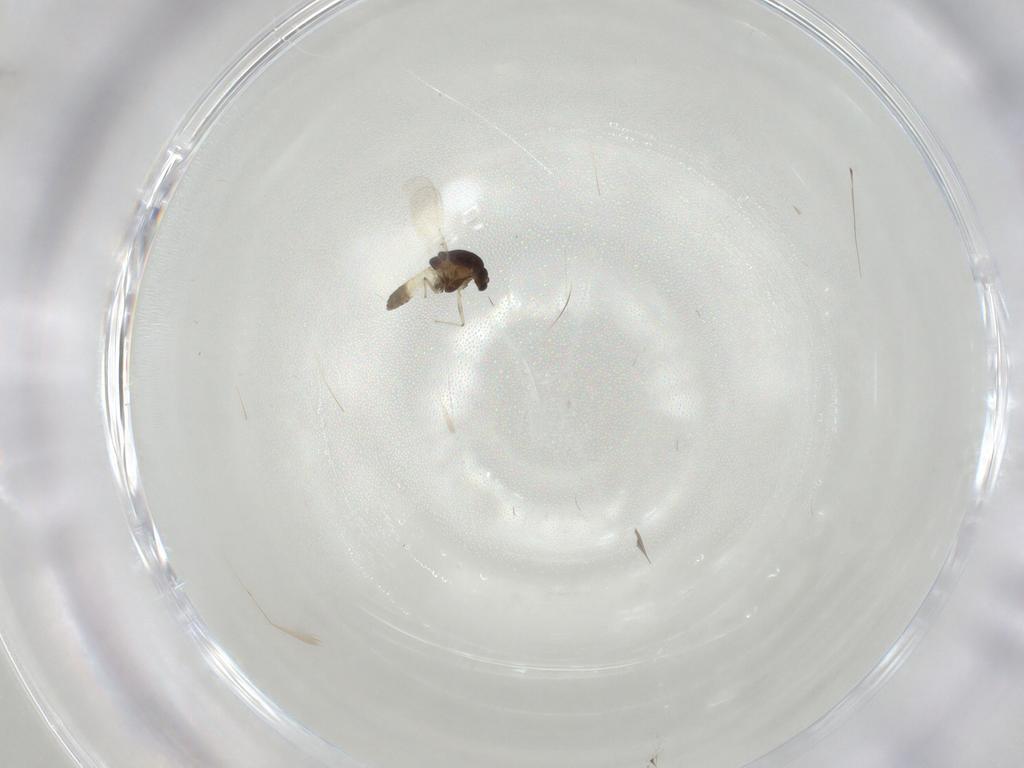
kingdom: Animalia
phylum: Arthropoda
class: Insecta
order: Diptera
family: Chironomidae
